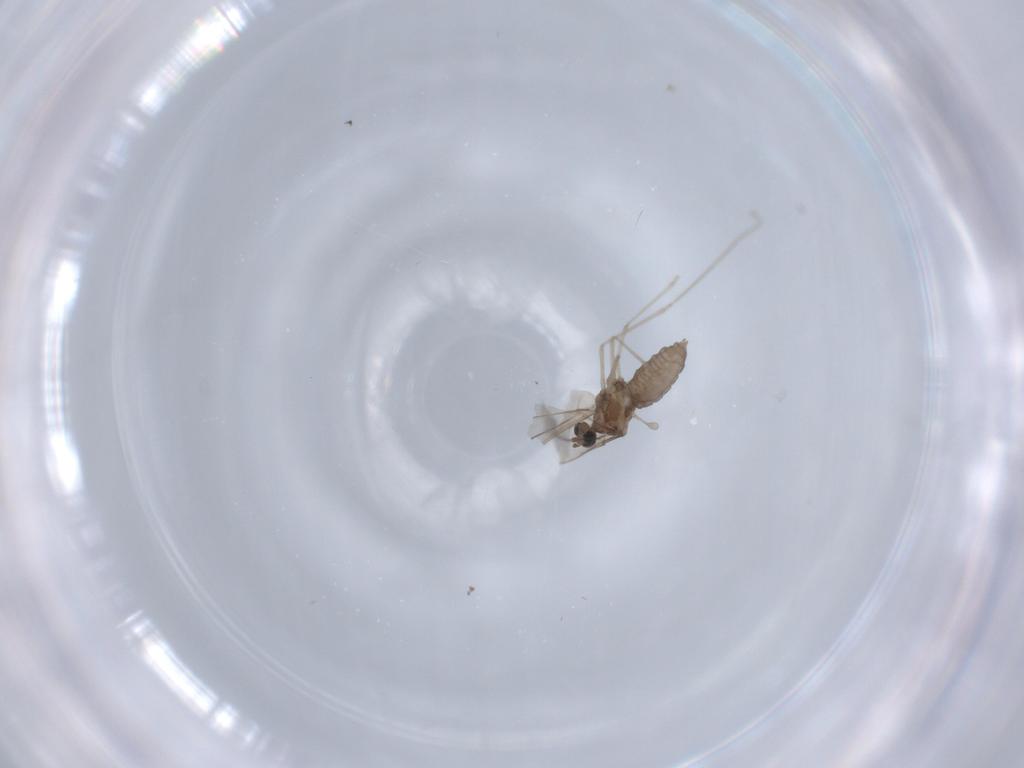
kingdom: Animalia
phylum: Arthropoda
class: Insecta
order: Diptera
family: Cecidomyiidae
